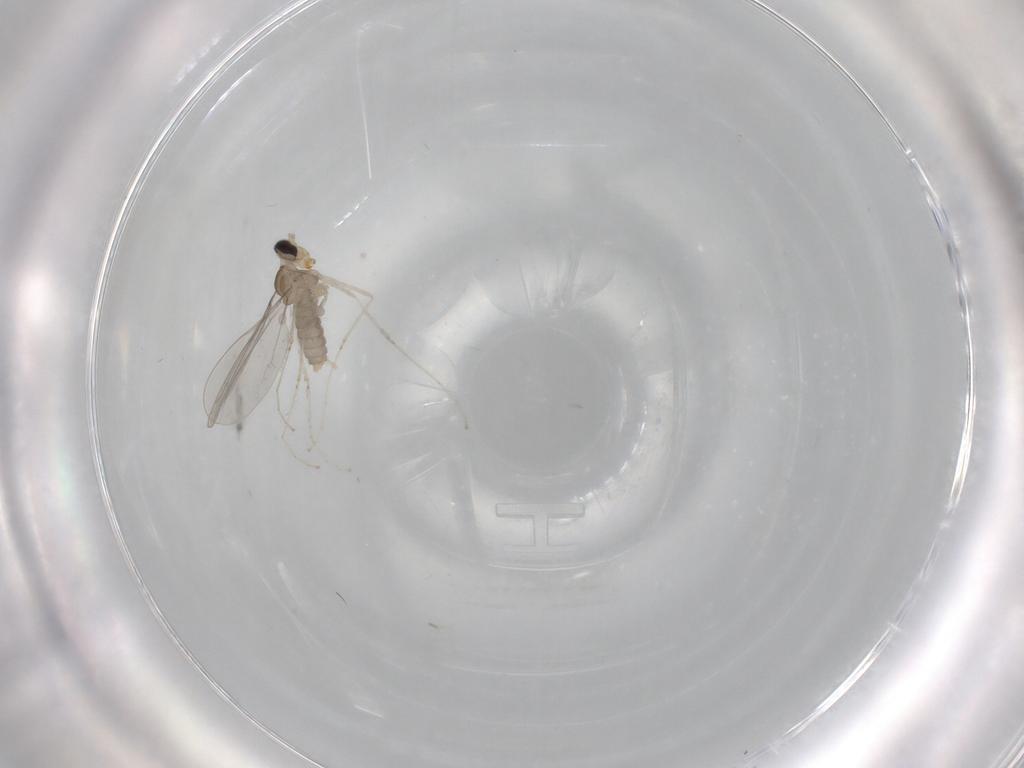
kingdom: Animalia
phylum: Arthropoda
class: Insecta
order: Diptera
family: Cecidomyiidae
